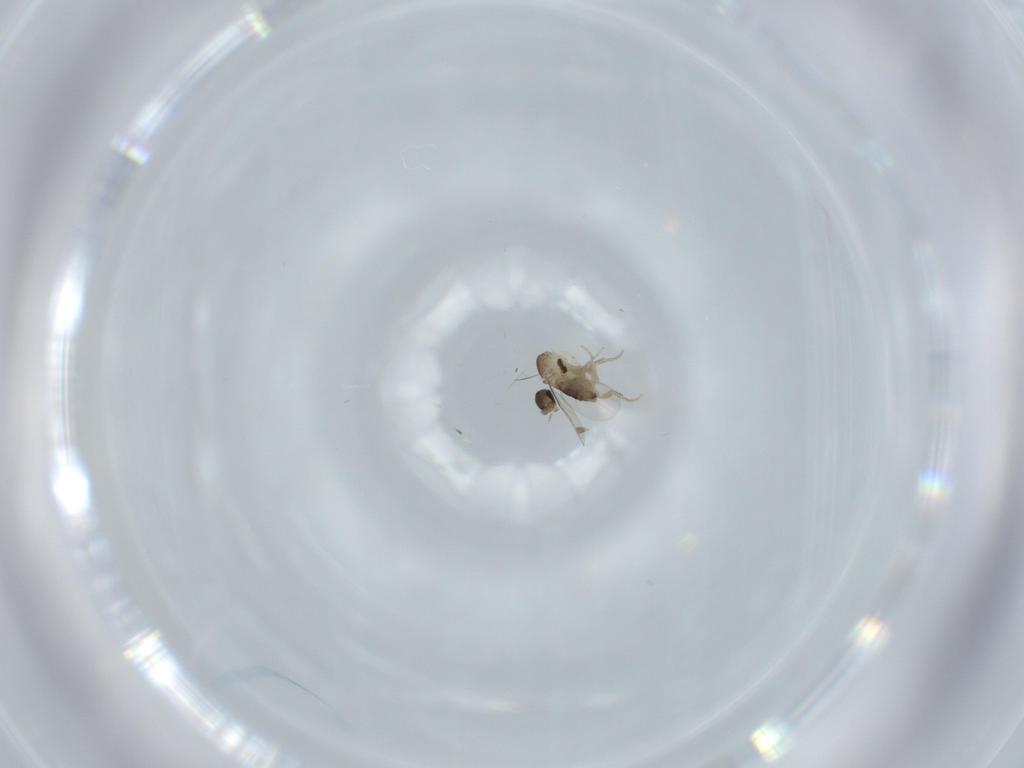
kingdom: Animalia
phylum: Arthropoda
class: Insecta
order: Diptera
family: Phoridae
